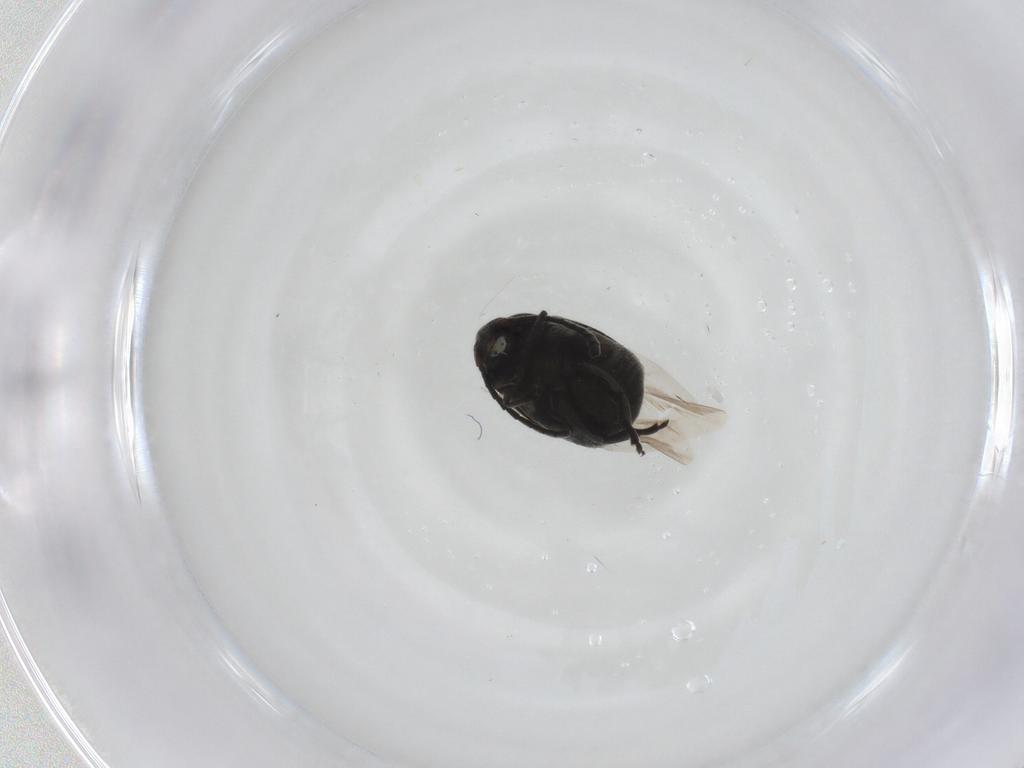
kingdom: Animalia
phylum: Arthropoda
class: Insecta
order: Coleoptera
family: Chrysomelidae
